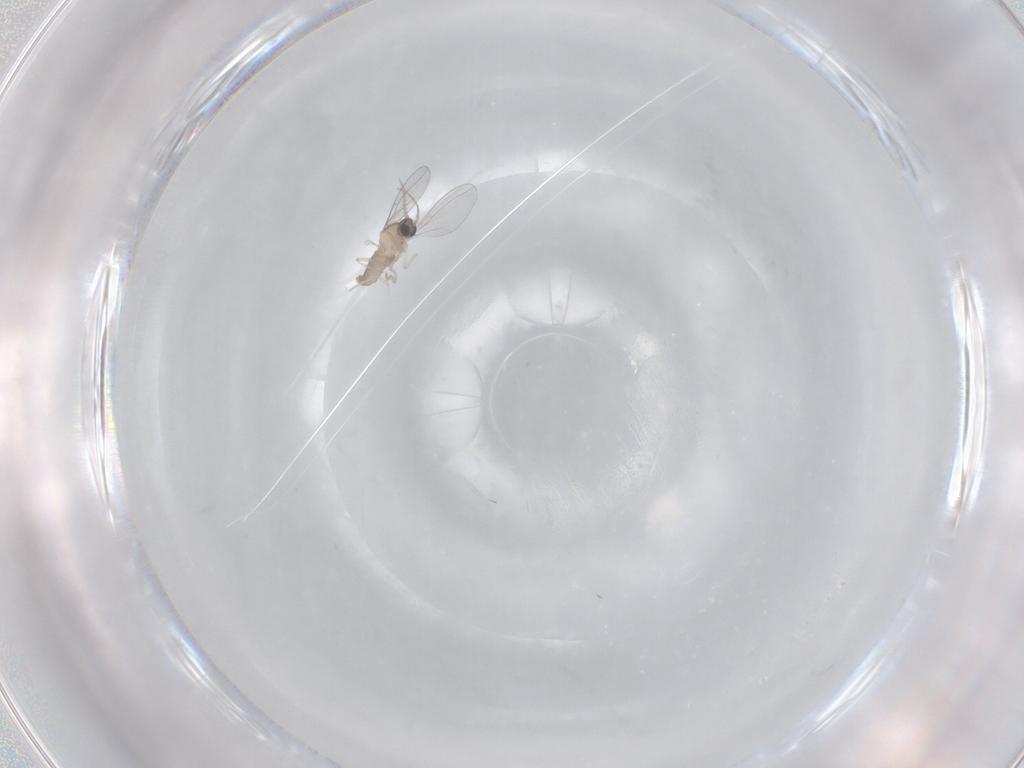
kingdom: Animalia
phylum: Arthropoda
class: Insecta
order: Diptera
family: Cecidomyiidae
